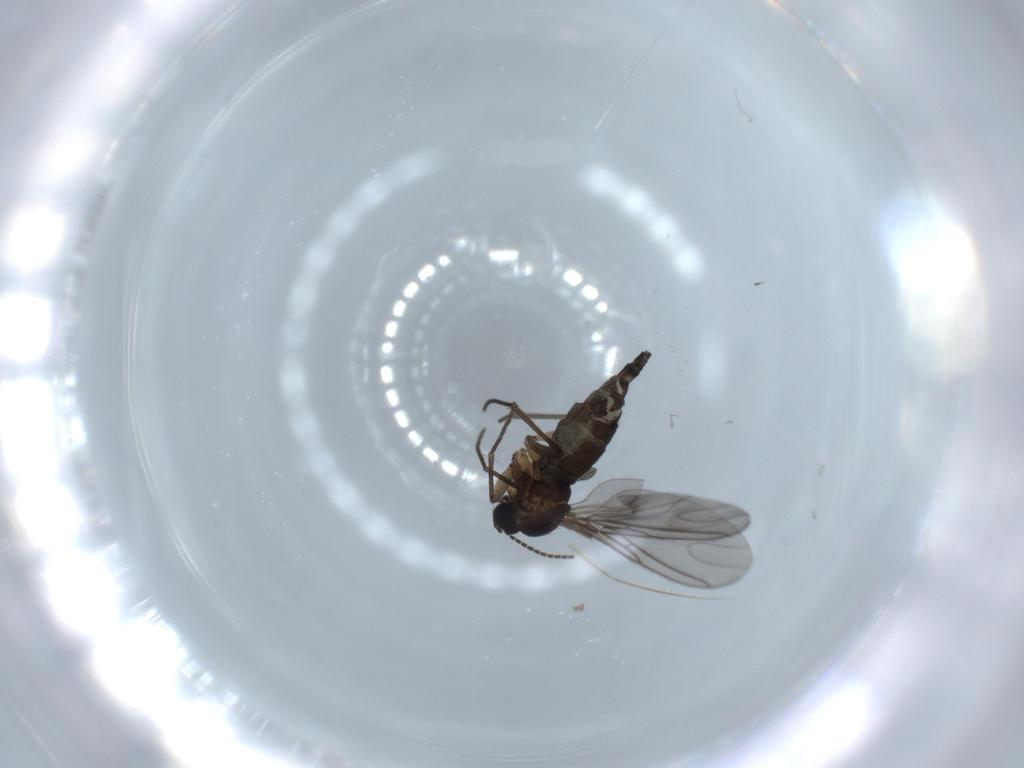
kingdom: Animalia
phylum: Arthropoda
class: Insecta
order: Diptera
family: Sciaridae
